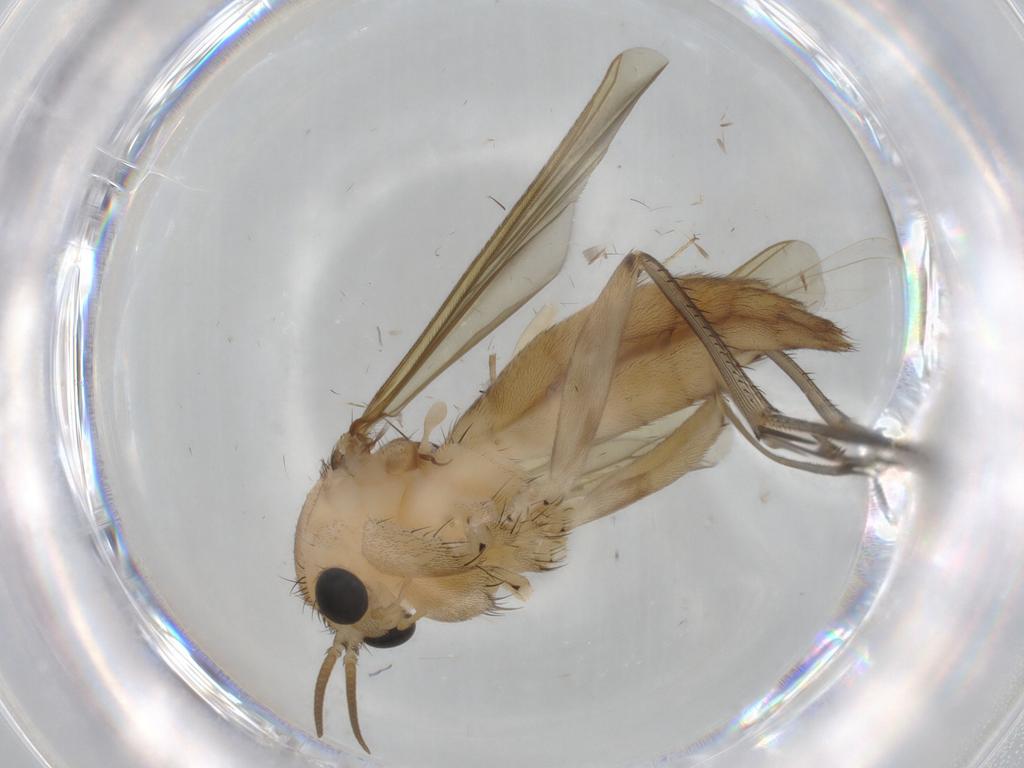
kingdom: Animalia
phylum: Arthropoda
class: Insecta
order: Diptera
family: Mycetophilidae
